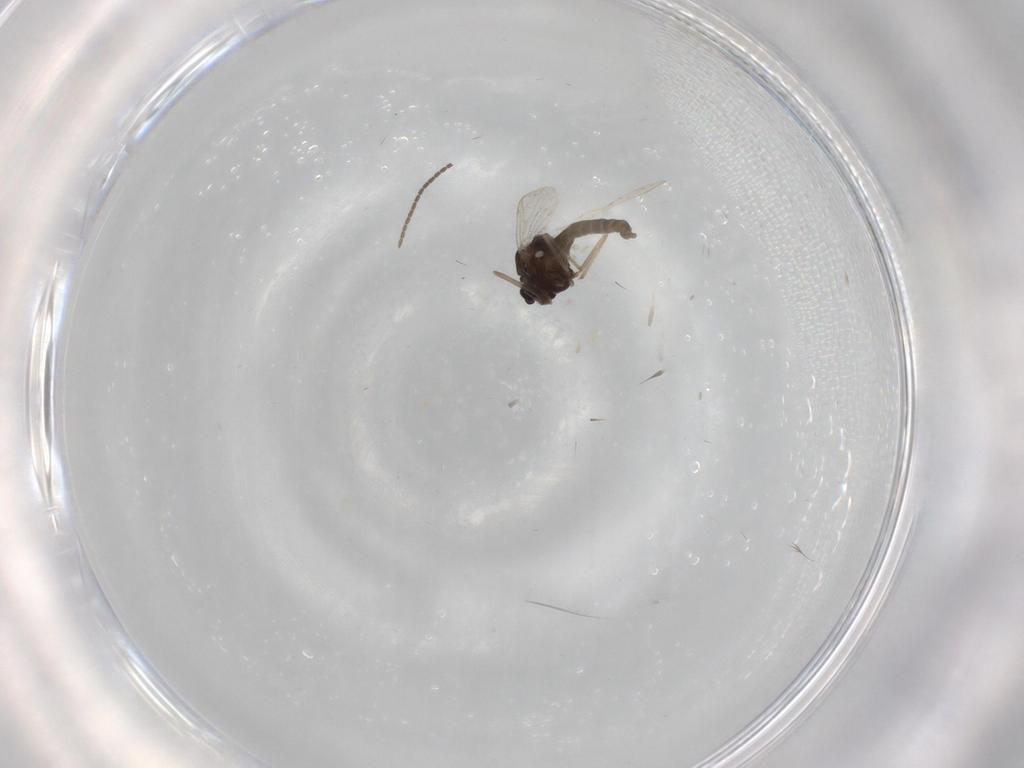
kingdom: Animalia
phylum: Arthropoda
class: Insecta
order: Diptera
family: Chironomidae
